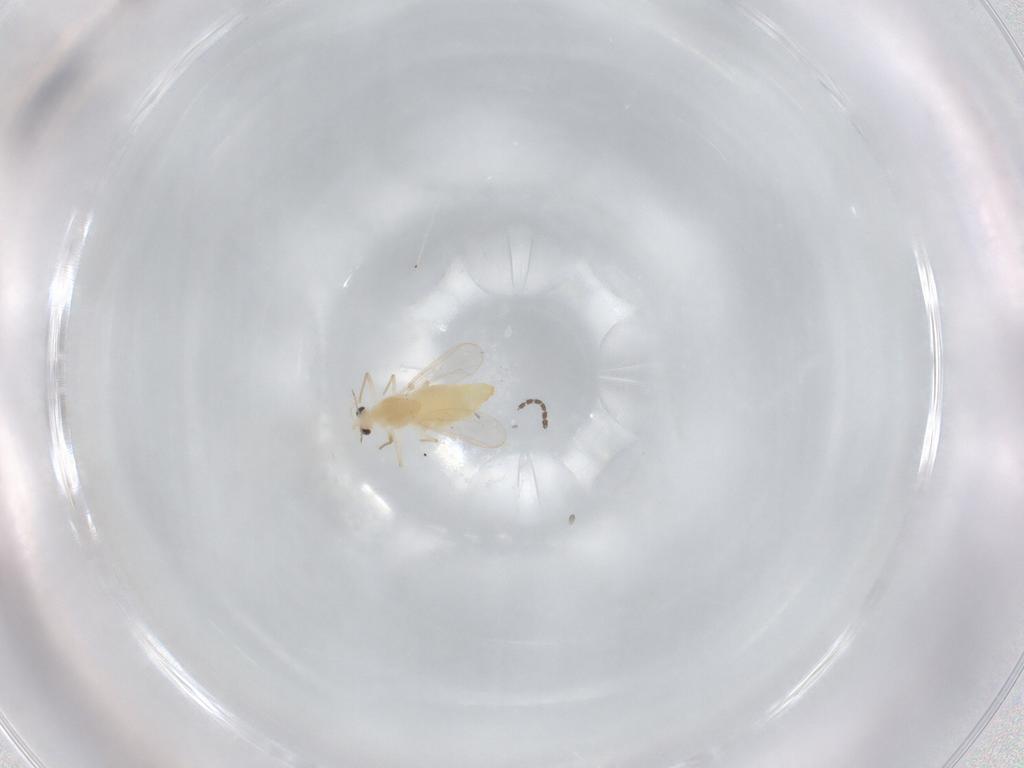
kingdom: Animalia
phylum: Arthropoda
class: Insecta
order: Diptera
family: Chironomidae
